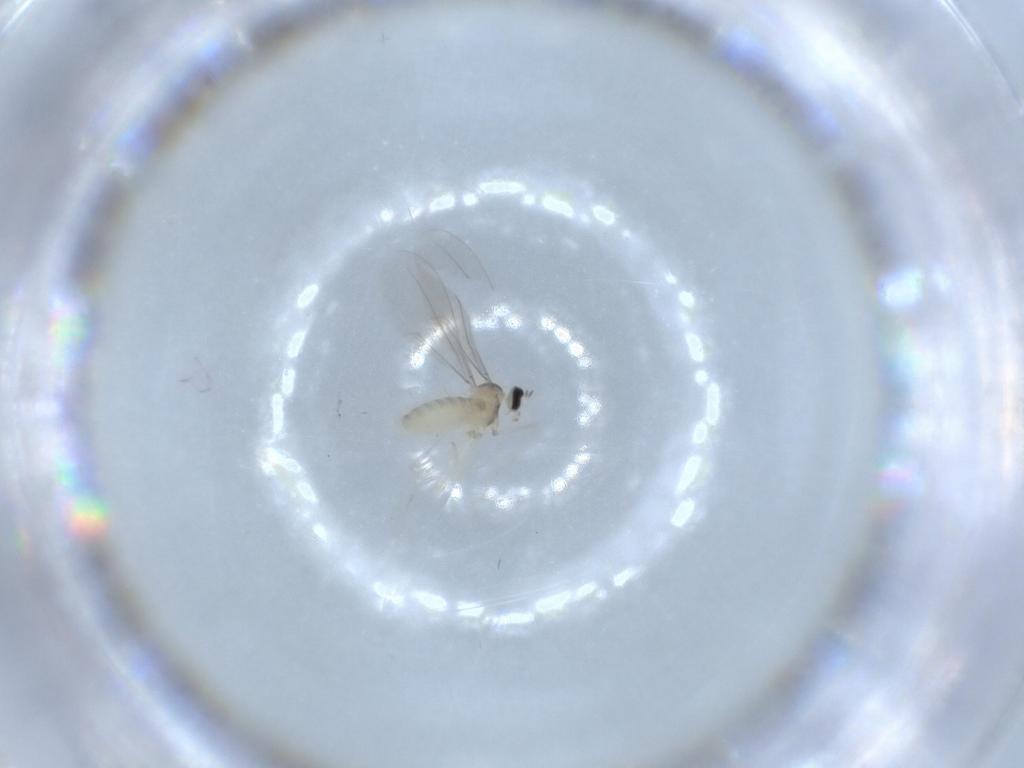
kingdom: Animalia
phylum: Arthropoda
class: Insecta
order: Diptera
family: Cecidomyiidae
